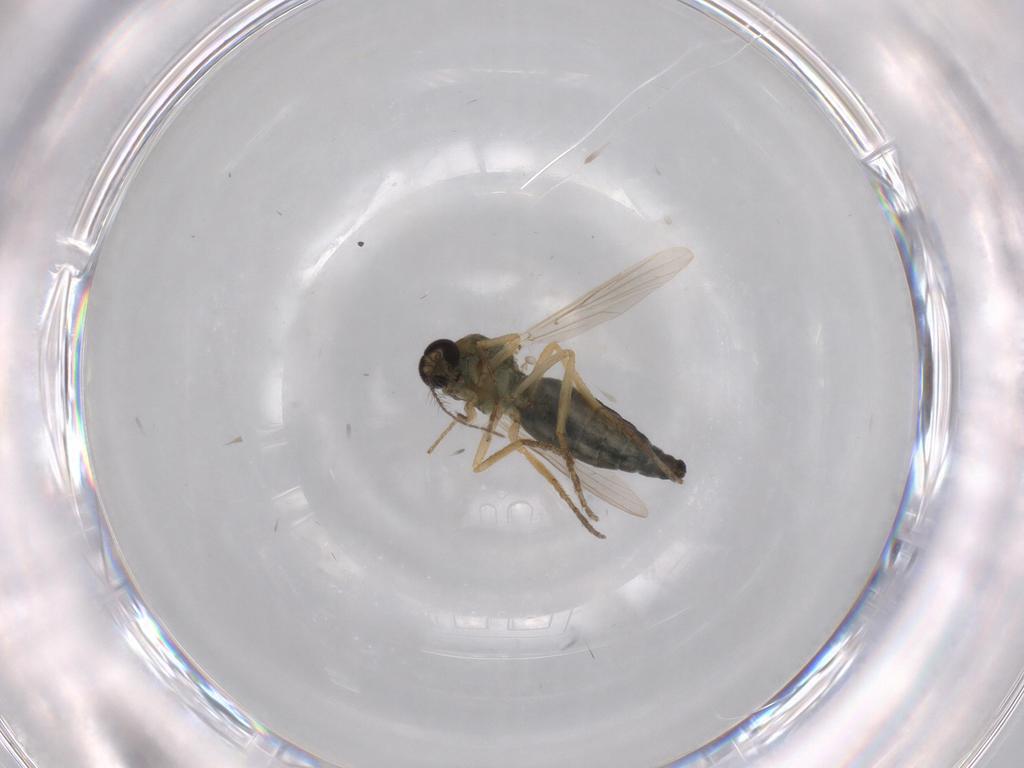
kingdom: Animalia
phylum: Arthropoda
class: Insecta
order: Diptera
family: Ceratopogonidae
